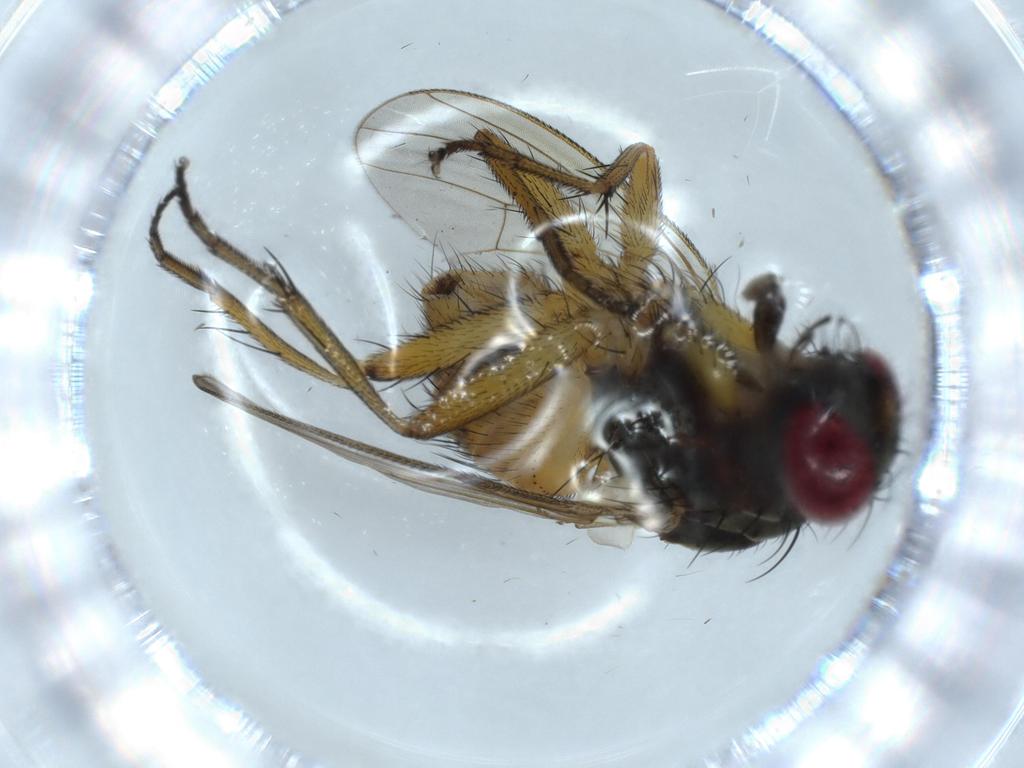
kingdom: Animalia
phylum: Arthropoda
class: Insecta
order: Diptera
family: Muscidae
